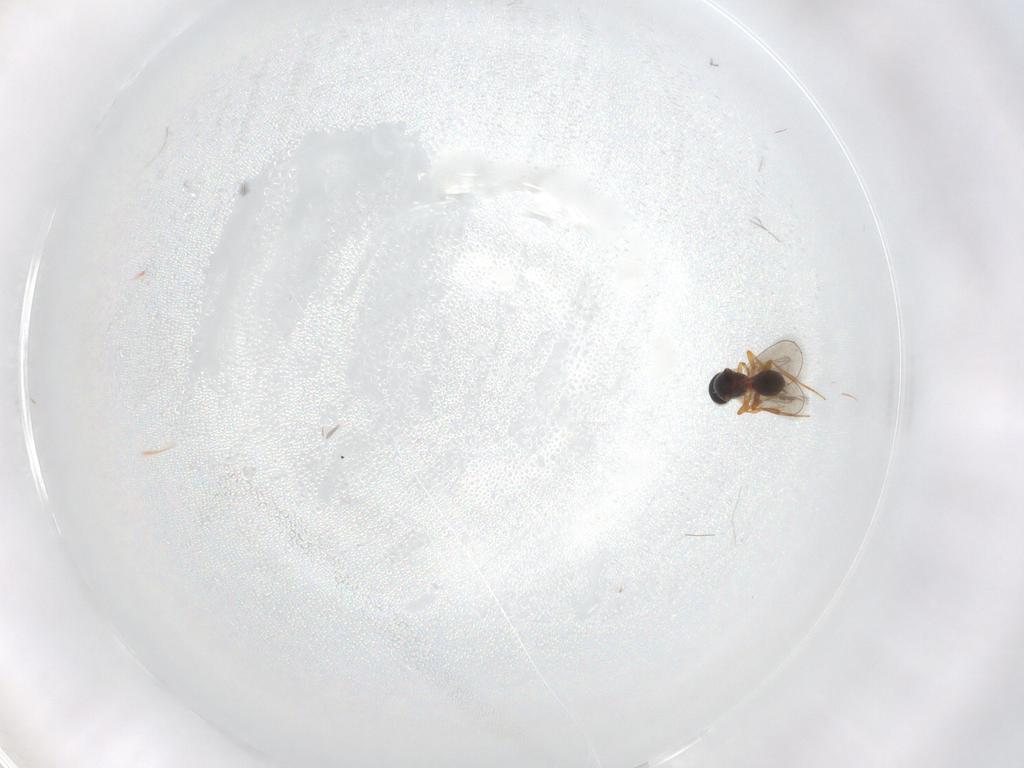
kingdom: Animalia
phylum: Arthropoda
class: Insecta
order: Hymenoptera
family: Platygastridae
